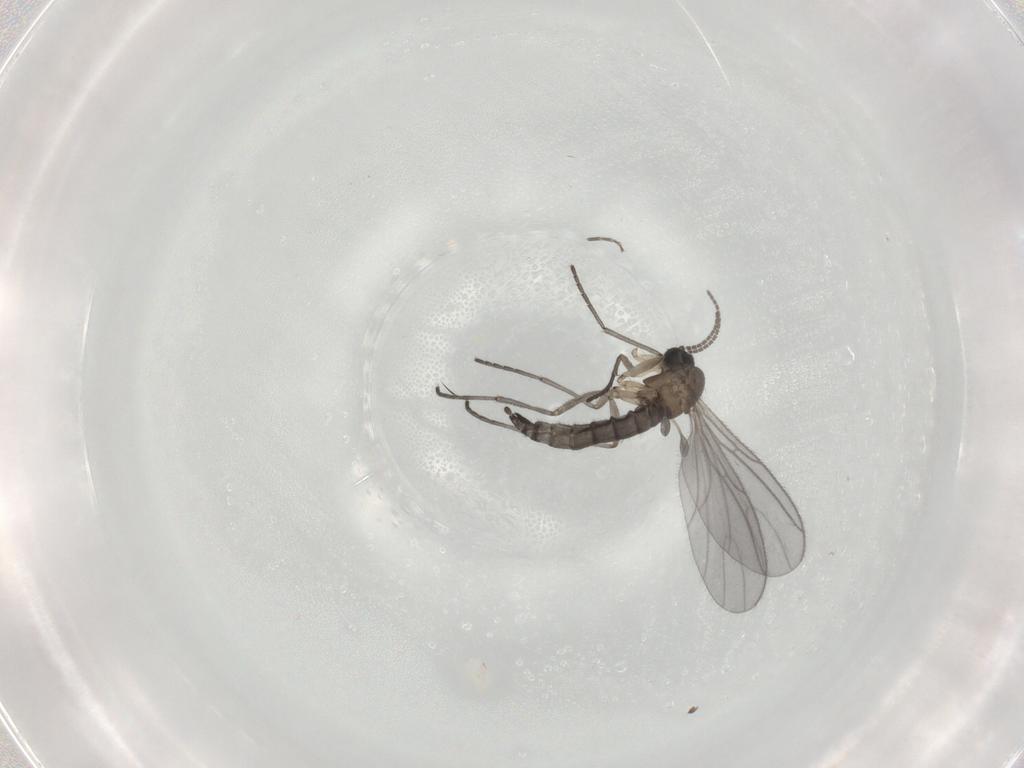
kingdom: Animalia
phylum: Arthropoda
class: Insecta
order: Diptera
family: Sciaridae
